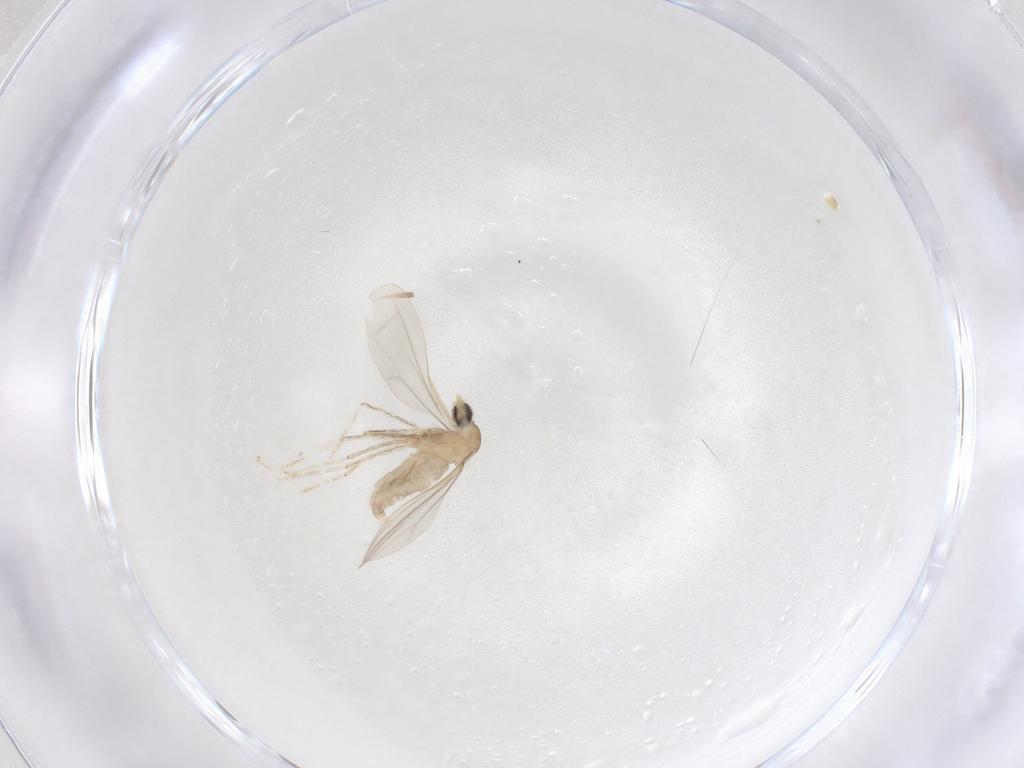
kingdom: Animalia
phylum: Arthropoda
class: Insecta
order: Diptera
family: Cecidomyiidae
